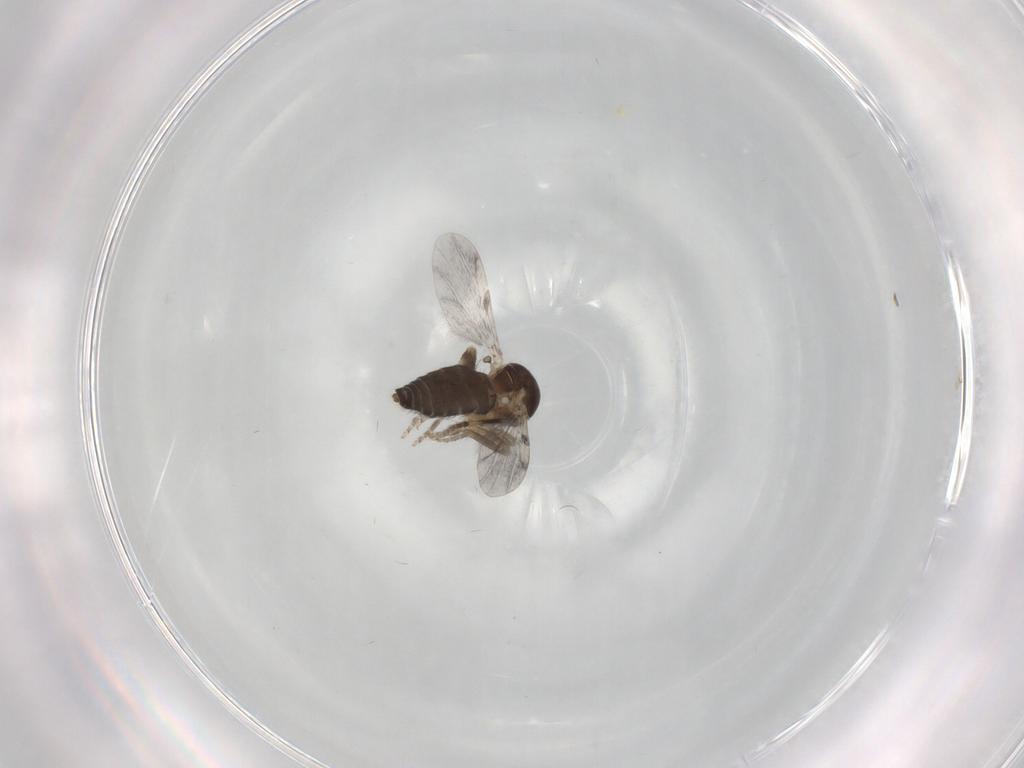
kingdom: Animalia
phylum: Arthropoda
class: Insecta
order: Diptera
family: Ceratopogonidae
